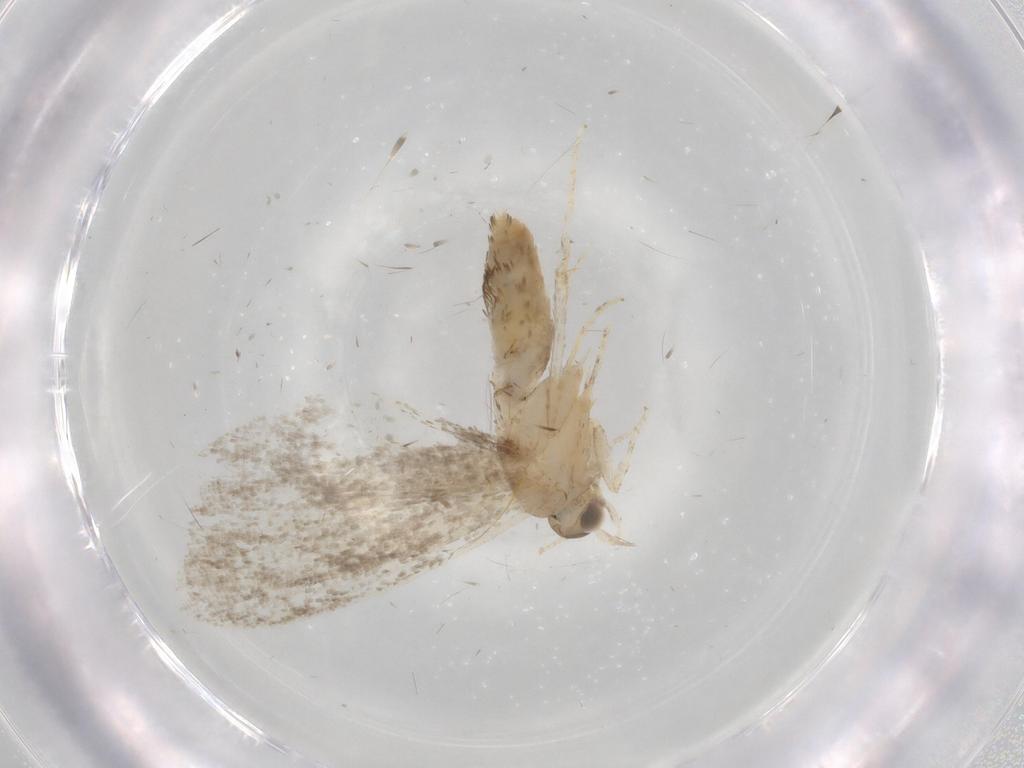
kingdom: Animalia
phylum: Arthropoda
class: Insecta
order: Lepidoptera
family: Tineidae
